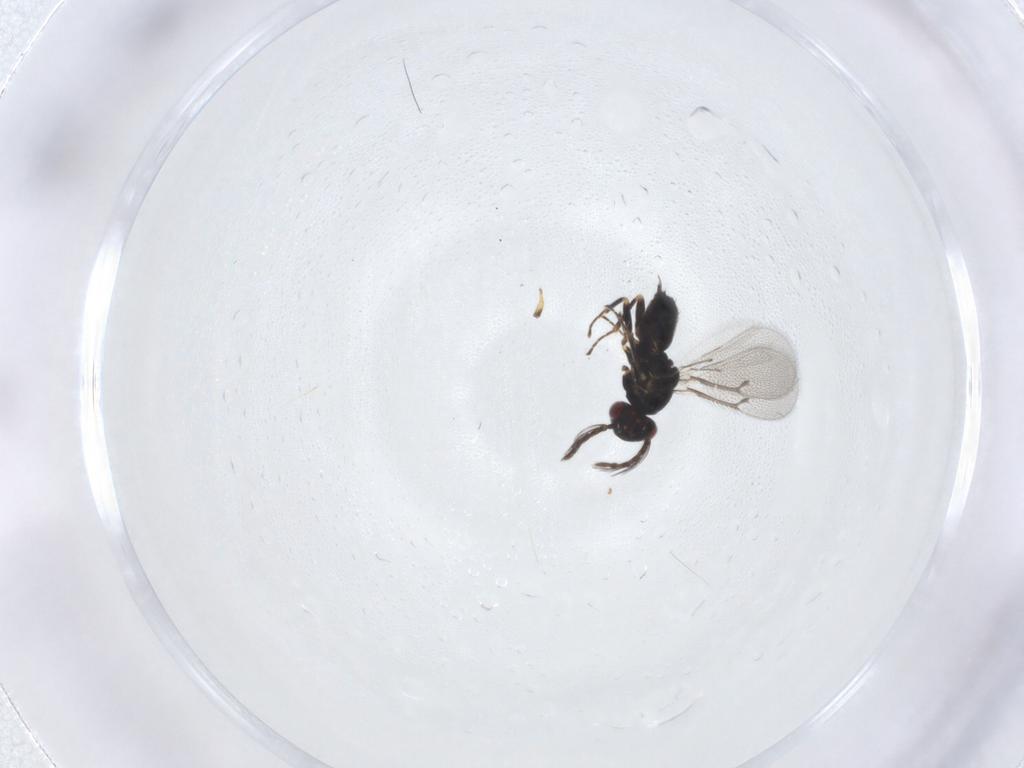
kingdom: Animalia
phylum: Arthropoda
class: Insecta
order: Hymenoptera
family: Eulophidae
